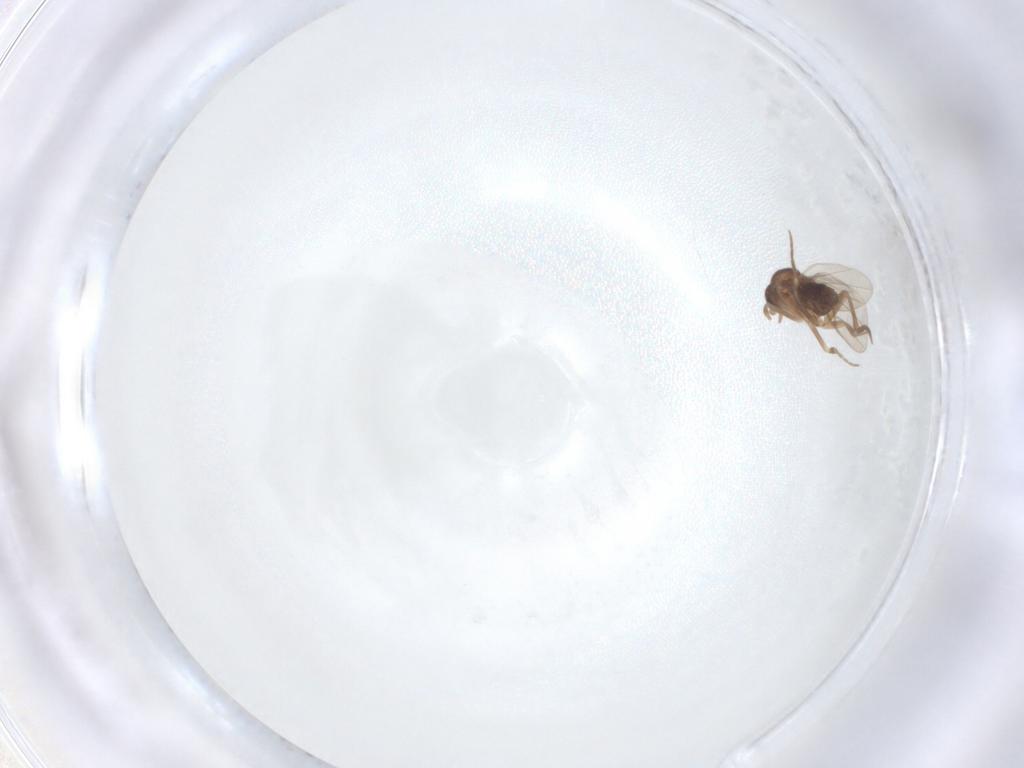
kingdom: Animalia
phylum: Arthropoda
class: Insecta
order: Diptera
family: Phoridae
